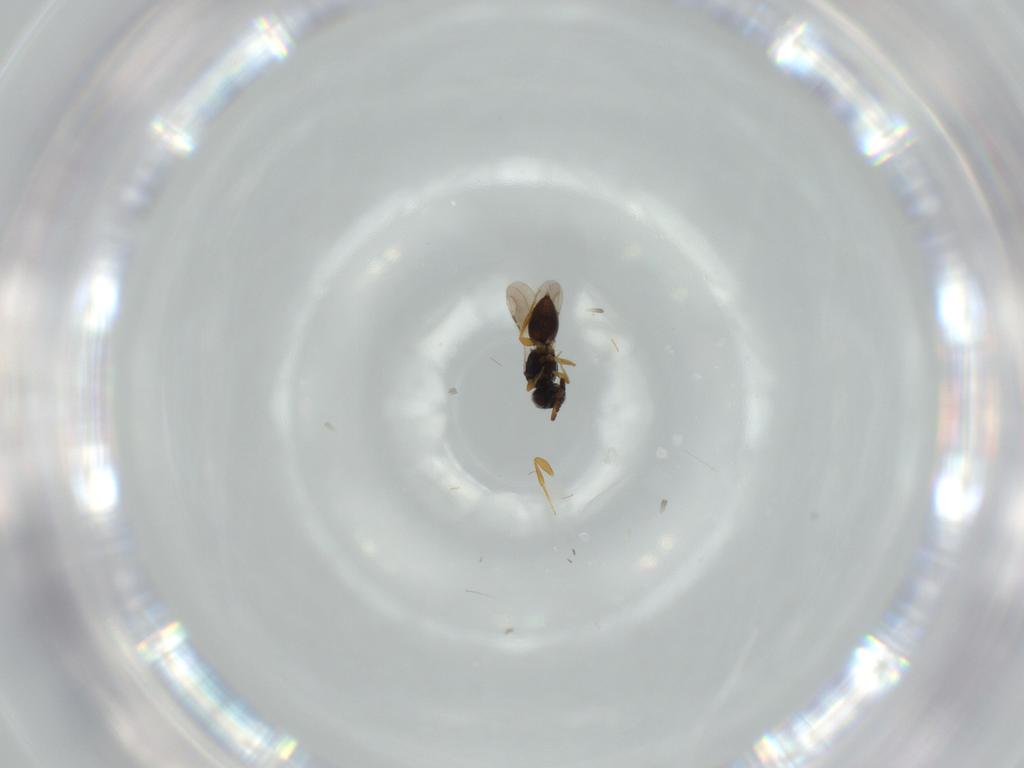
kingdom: Animalia
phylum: Arthropoda
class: Insecta
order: Hymenoptera
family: Scelionidae
